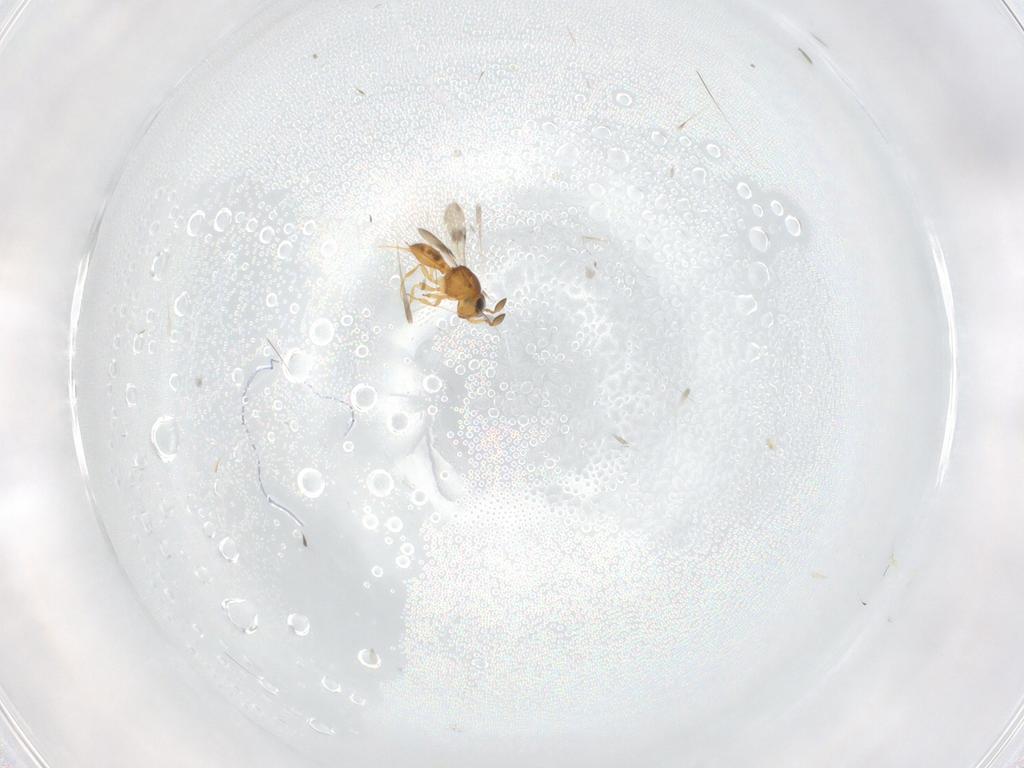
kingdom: Animalia
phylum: Arthropoda
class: Insecta
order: Hymenoptera
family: Scelionidae
